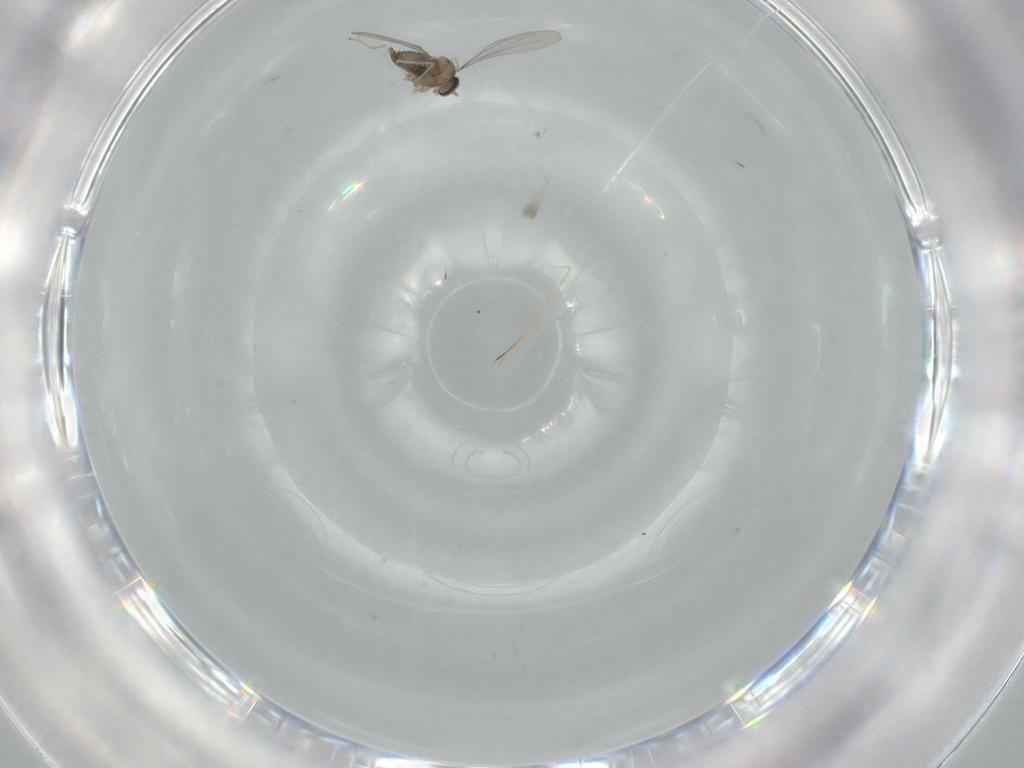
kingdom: Animalia
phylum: Arthropoda
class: Insecta
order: Diptera
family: Cecidomyiidae
